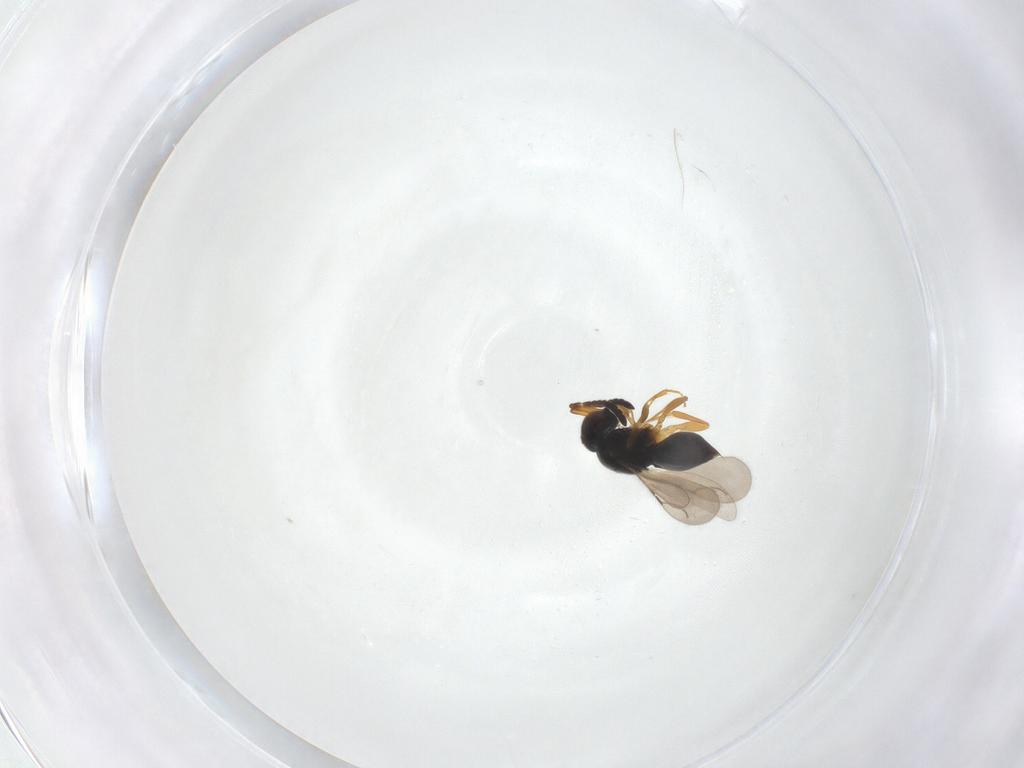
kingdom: Animalia
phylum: Arthropoda
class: Insecta
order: Hymenoptera
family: Ceraphronidae
